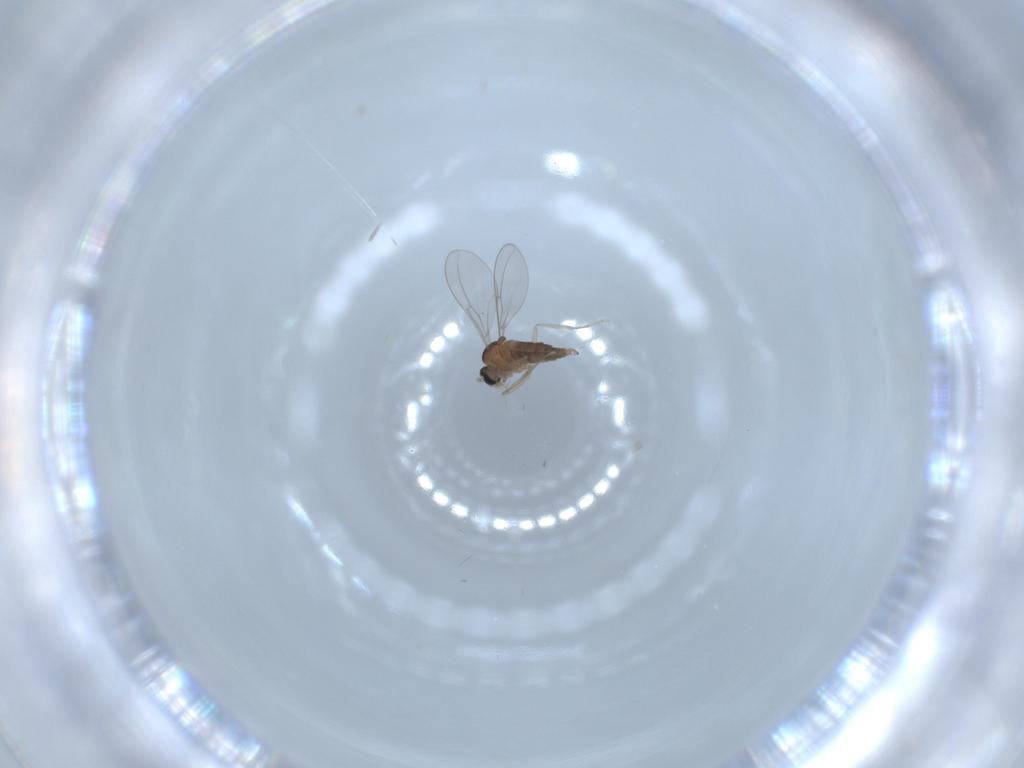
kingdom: Animalia
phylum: Arthropoda
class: Insecta
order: Diptera
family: Cecidomyiidae
